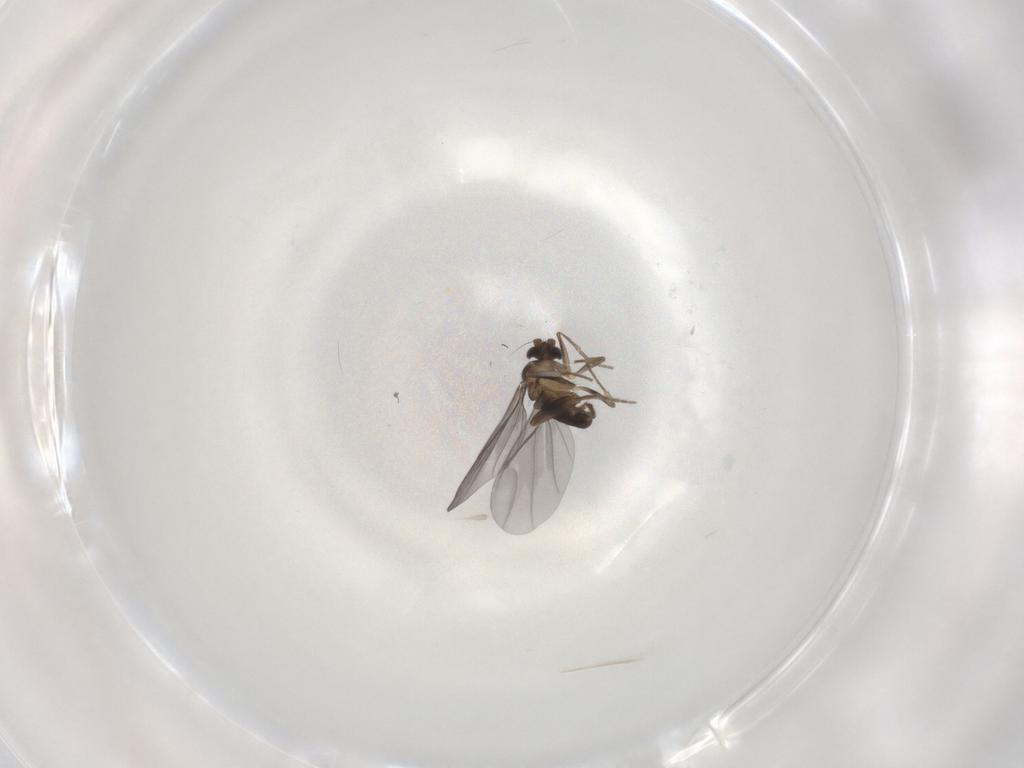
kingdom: Animalia
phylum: Arthropoda
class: Insecta
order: Diptera
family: Phoridae
